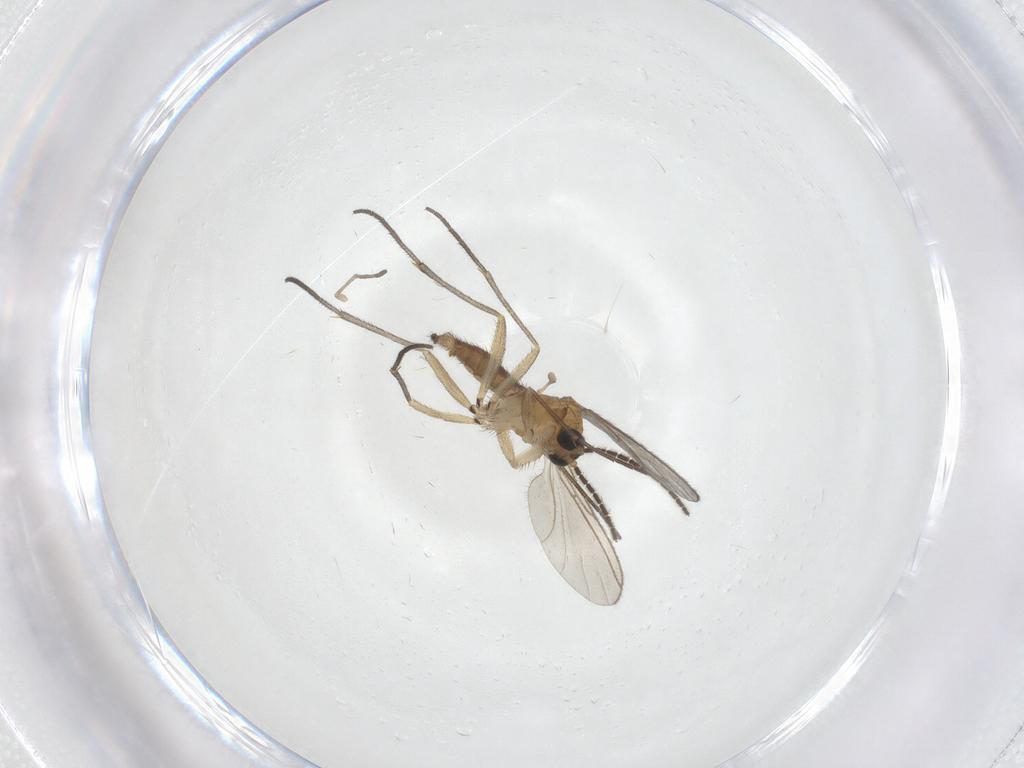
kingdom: Animalia
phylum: Arthropoda
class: Insecta
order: Diptera
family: Sciaridae
